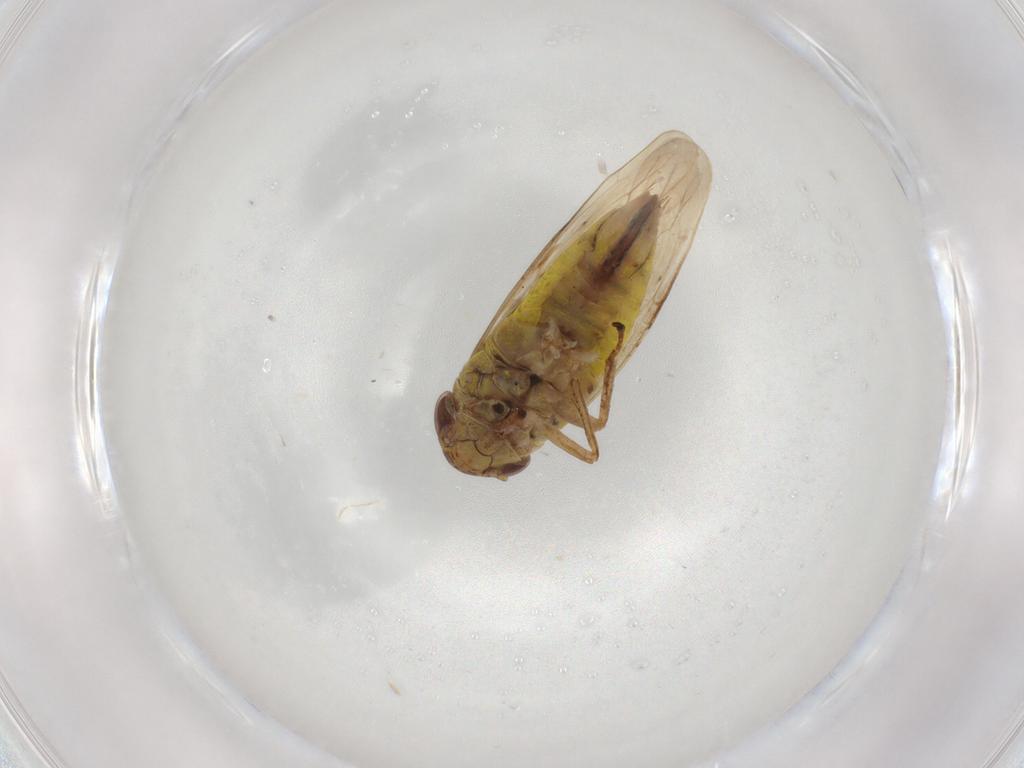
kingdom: Animalia
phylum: Arthropoda
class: Insecta
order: Hemiptera
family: Cicadellidae
